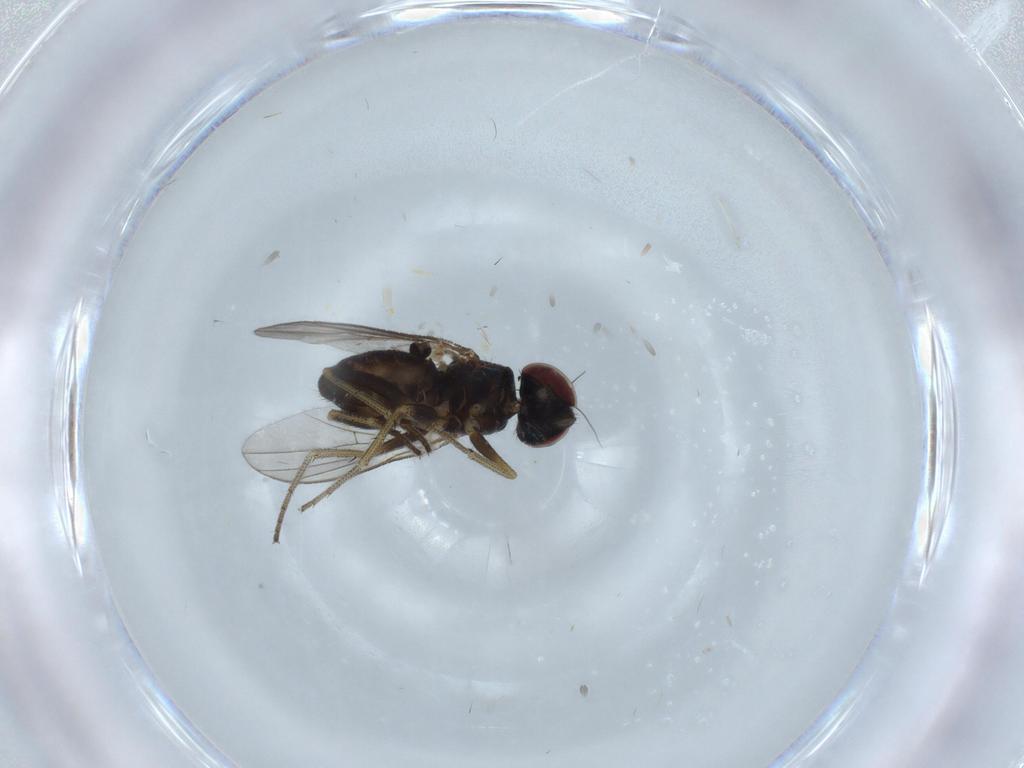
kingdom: Animalia
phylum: Arthropoda
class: Insecta
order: Diptera
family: Cecidomyiidae
